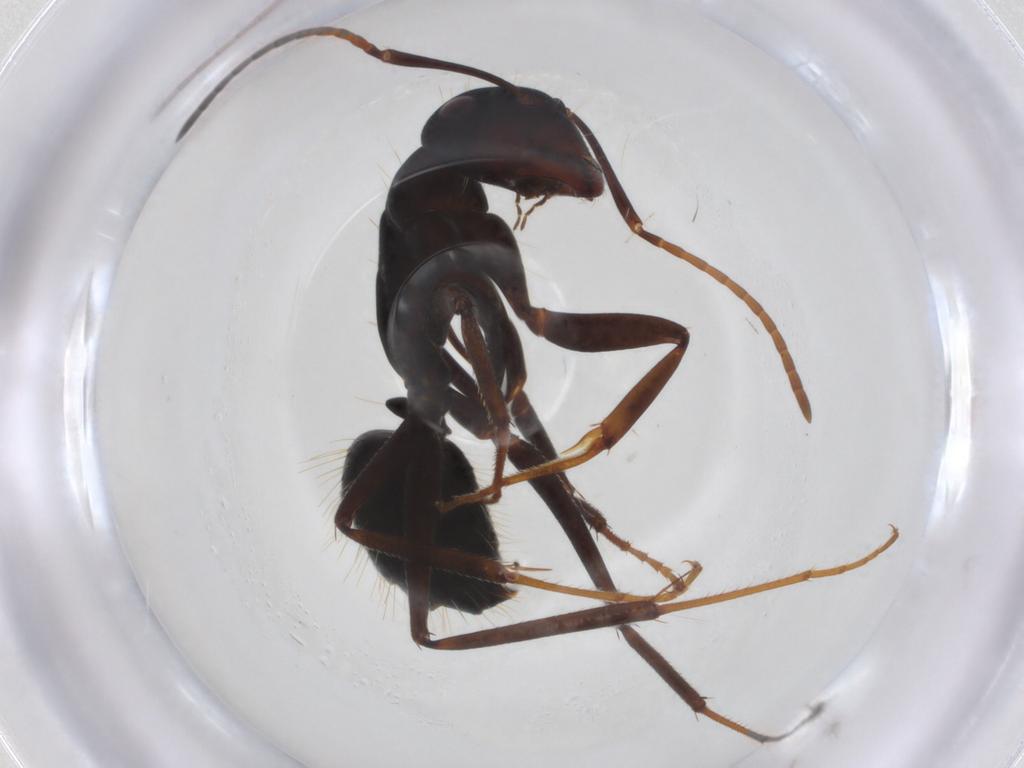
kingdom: Animalia
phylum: Arthropoda
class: Insecta
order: Hymenoptera
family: Formicidae
